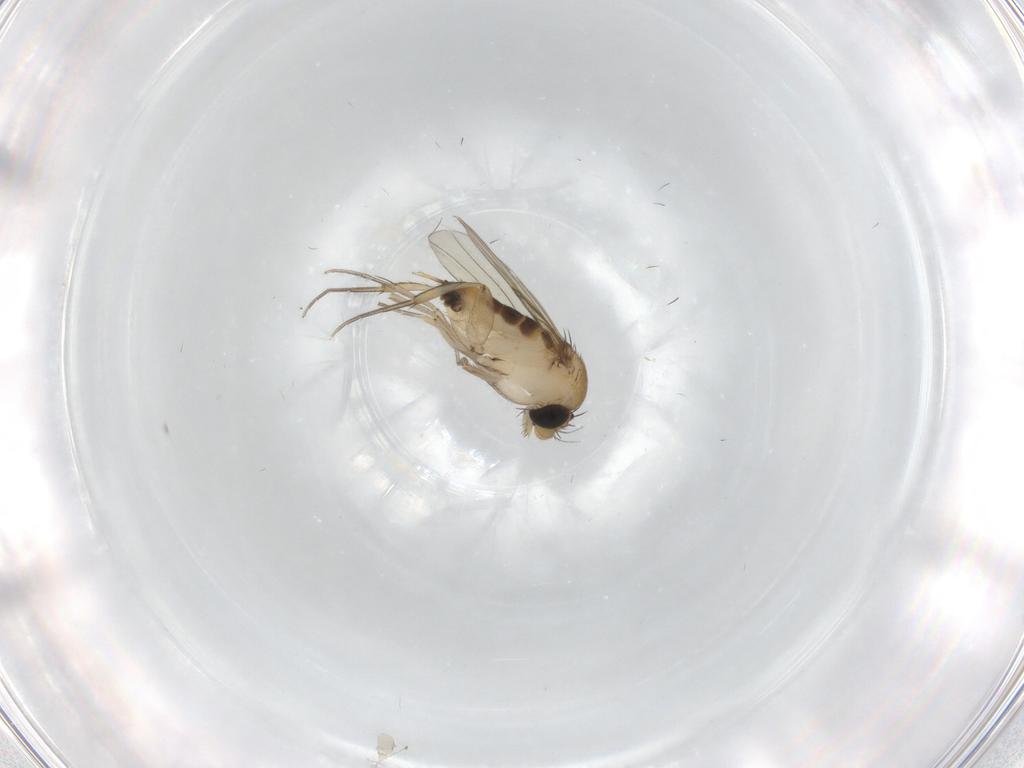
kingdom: Animalia
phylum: Arthropoda
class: Insecta
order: Diptera
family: Phoridae
